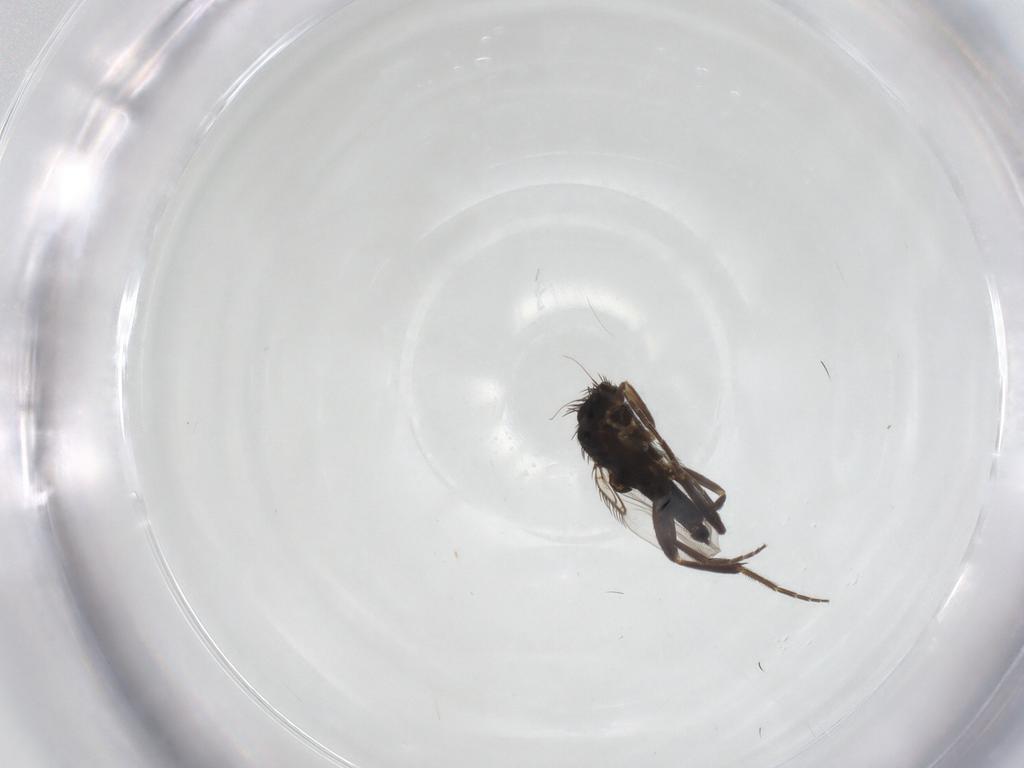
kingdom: Animalia
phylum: Arthropoda
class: Insecta
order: Diptera
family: Phoridae
